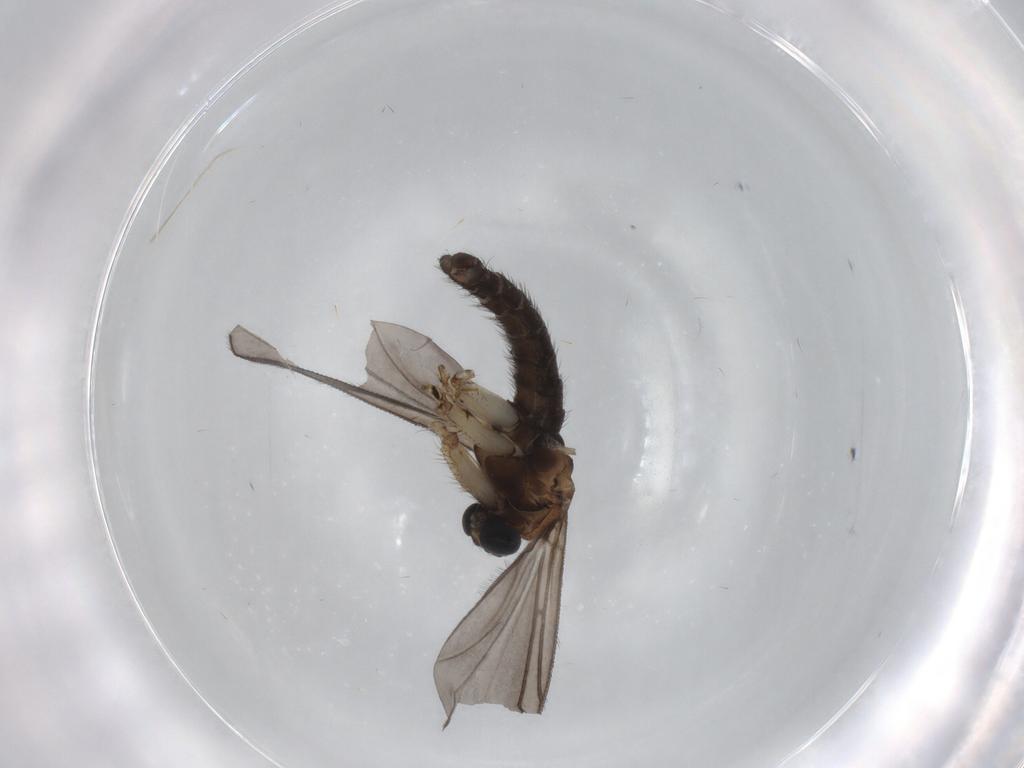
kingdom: Animalia
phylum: Arthropoda
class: Insecta
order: Diptera
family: Sciaridae
